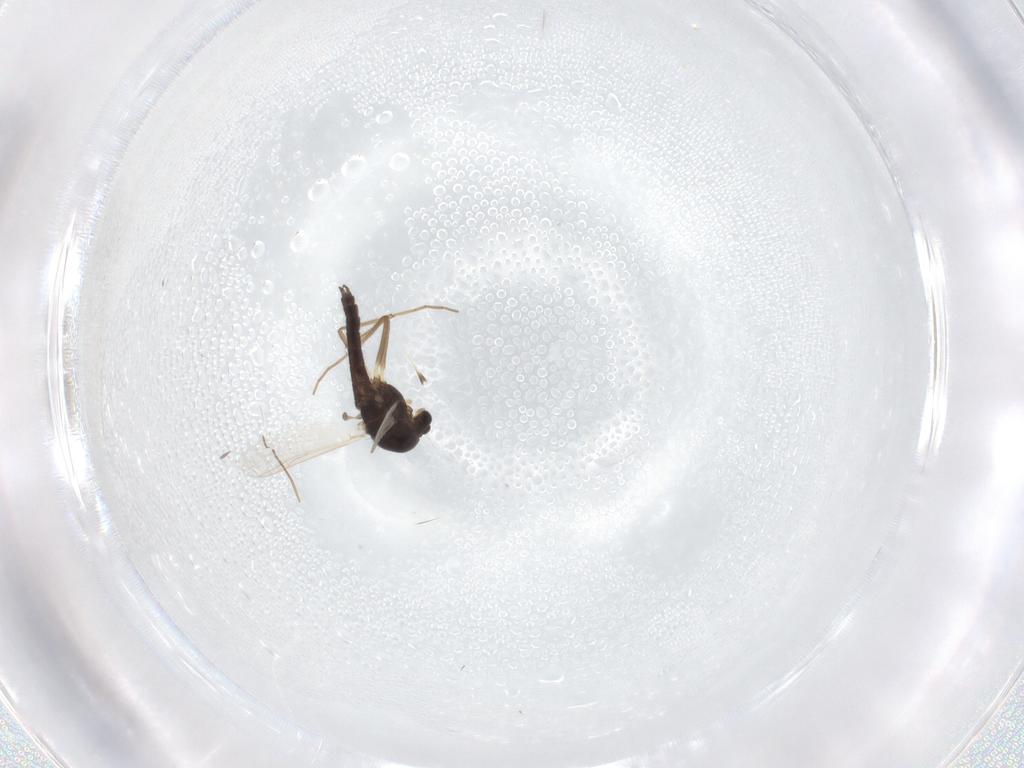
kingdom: Animalia
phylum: Arthropoda
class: Insecta
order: Diptera
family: Chironomidae
